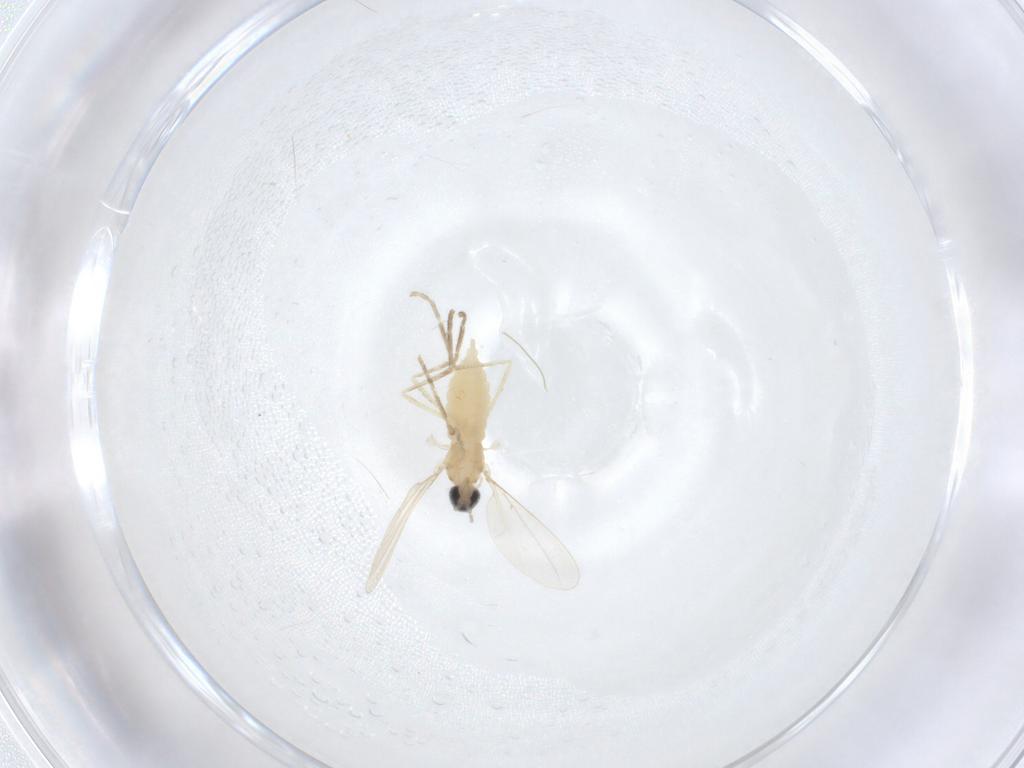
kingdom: Animalia
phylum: Arthropoda
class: Insecta
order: Diptera
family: Cecidomyiidae
